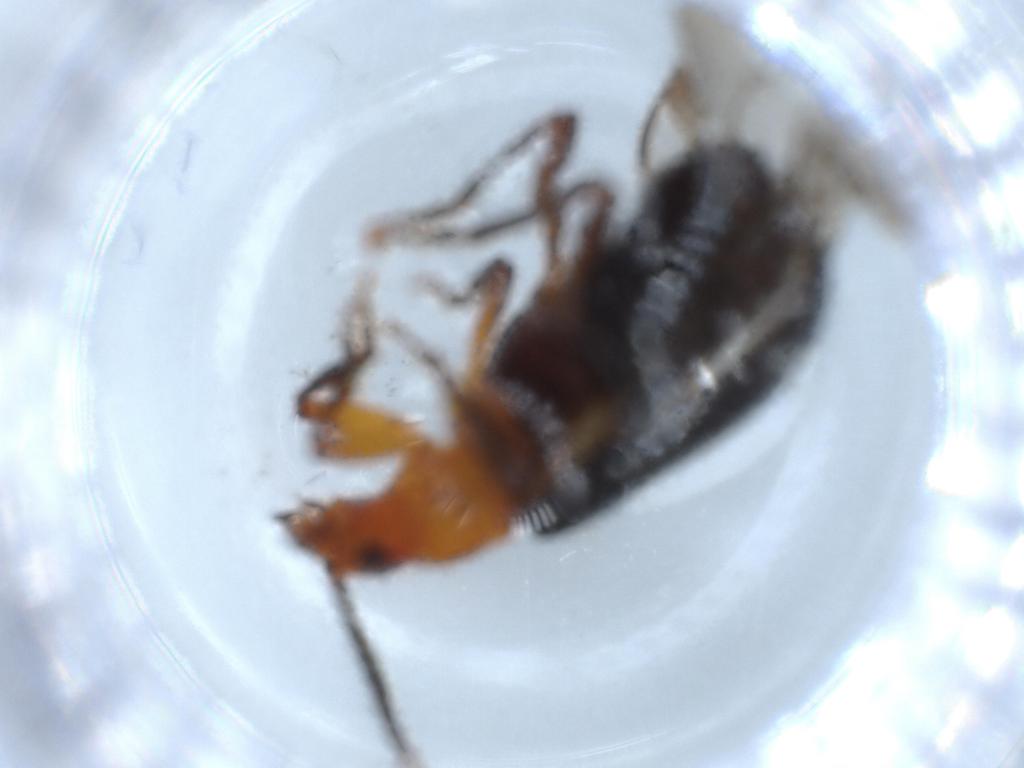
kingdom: Animalia
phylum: Arthropoda
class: Insecta
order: Coleoptera
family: Carabidae
